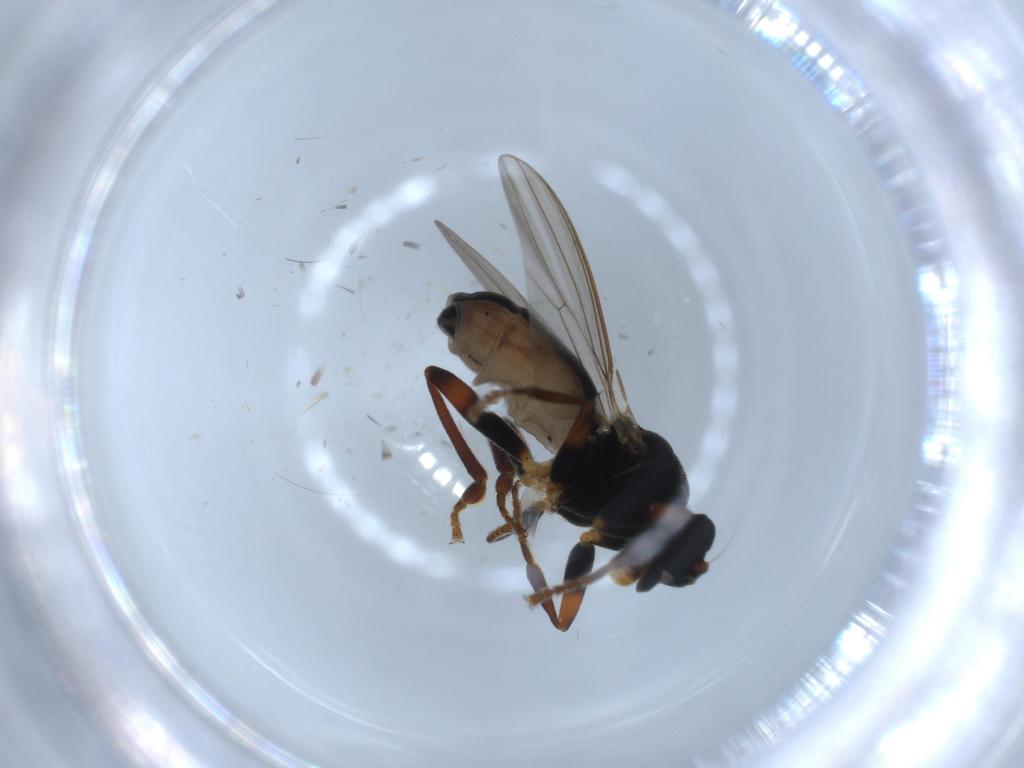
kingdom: Animalia
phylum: Arthropoda
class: Insecta
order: Diptera
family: Sphaeroceridae
